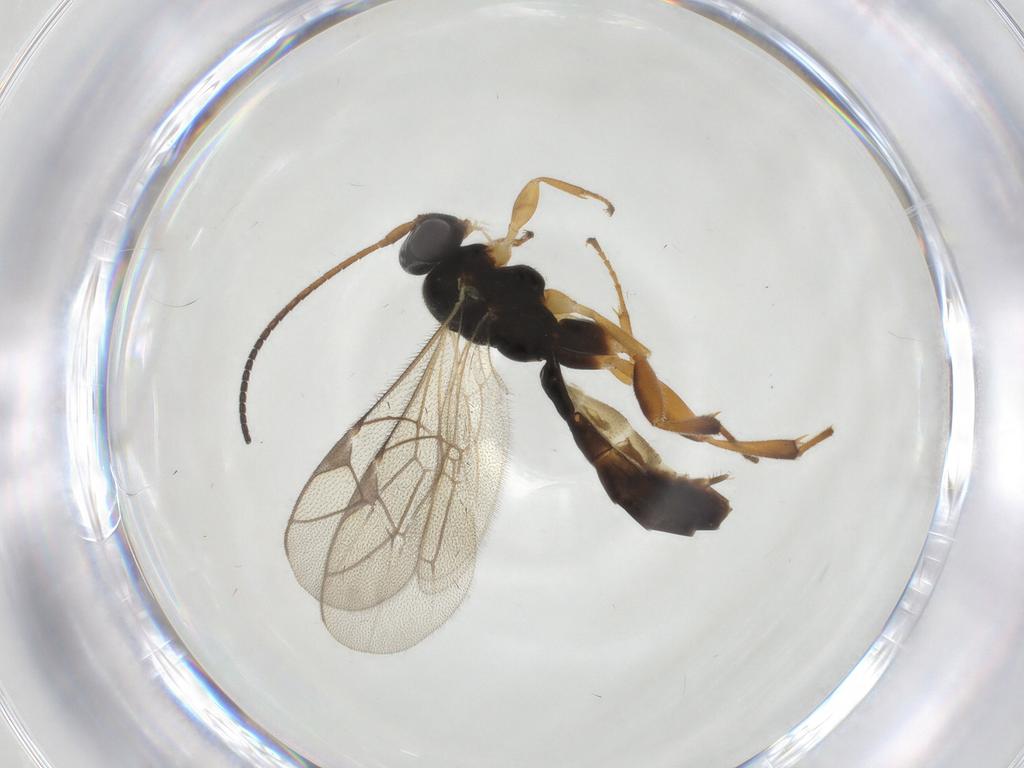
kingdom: Animalia
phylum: Arthropoda
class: Insecta
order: Hymenoptera
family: Ichneumonidae
